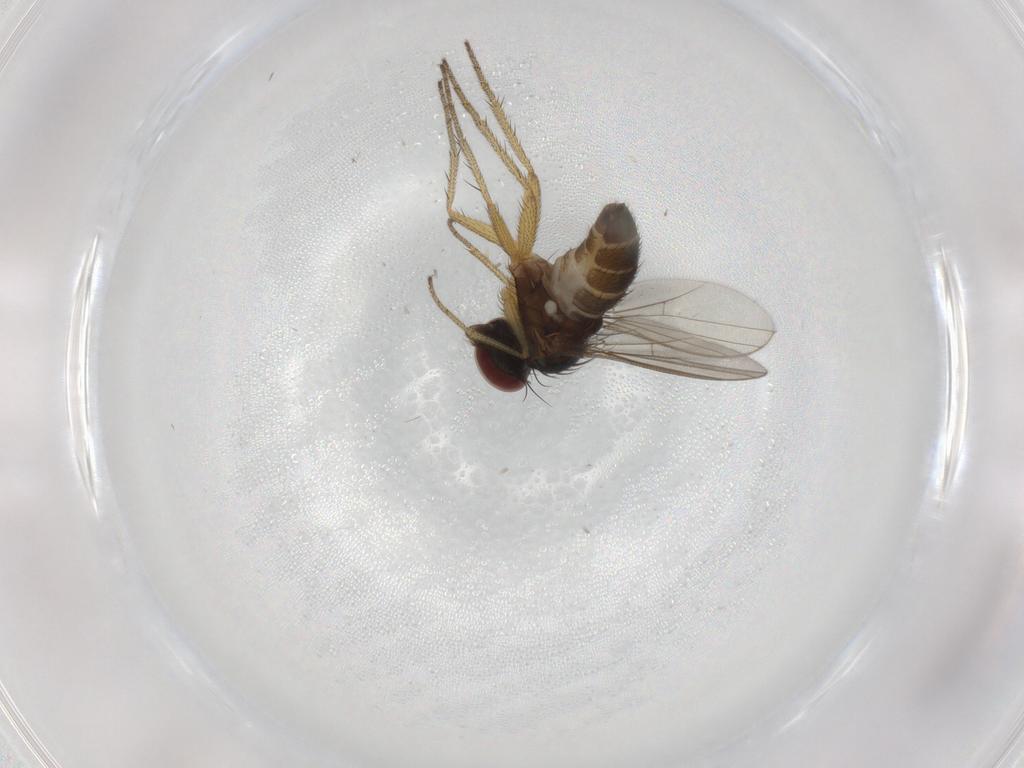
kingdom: Animalia
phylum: Arthropoda
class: Insecta
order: Diptera
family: Dolichopodidae
